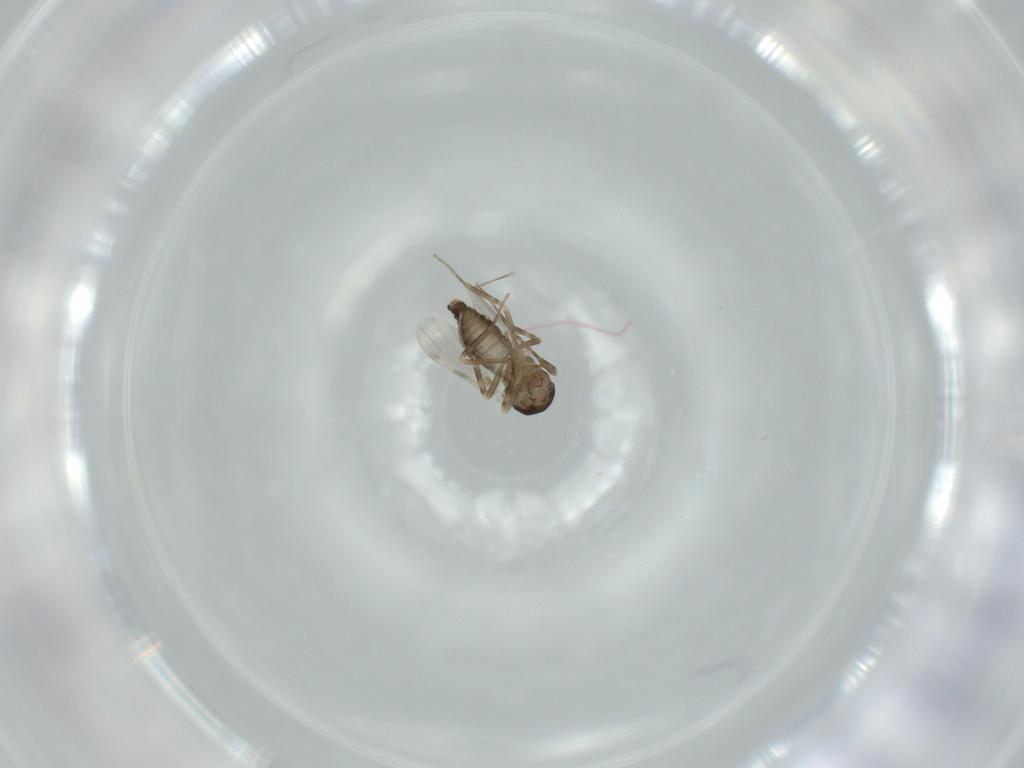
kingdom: Animalia
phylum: Arthropoda
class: Insecta
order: Diptera
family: Ceratopogonidae
